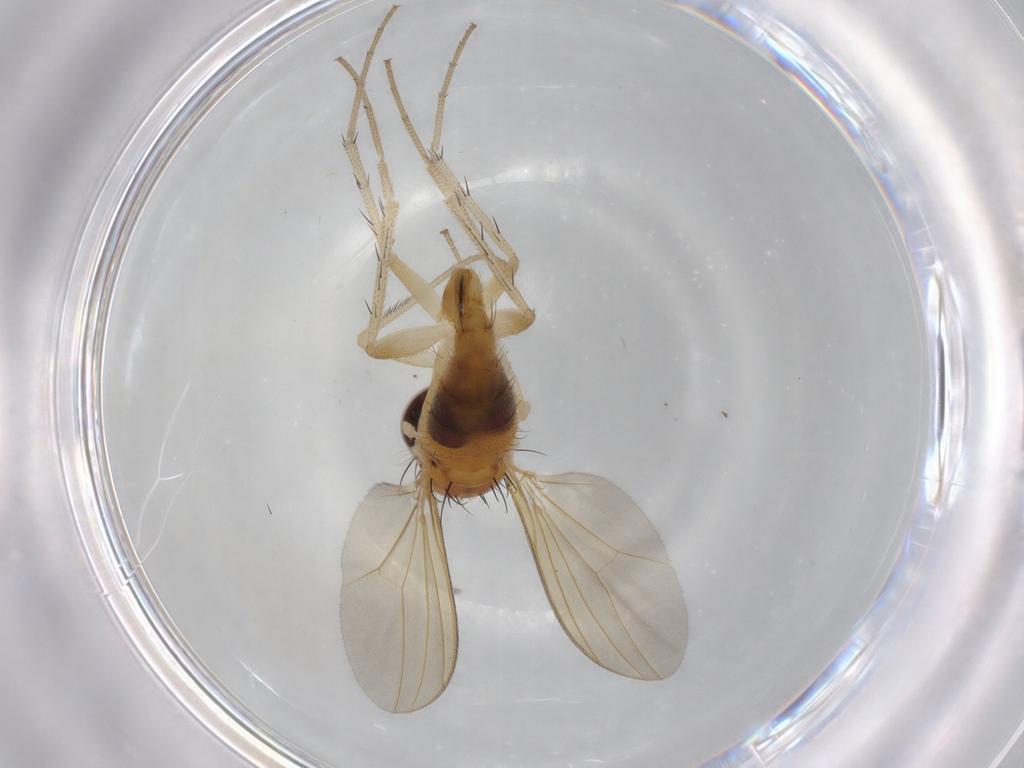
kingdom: Animalia
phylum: Arthropoda
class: Insecta
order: Diptera
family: Dolichopodidae
